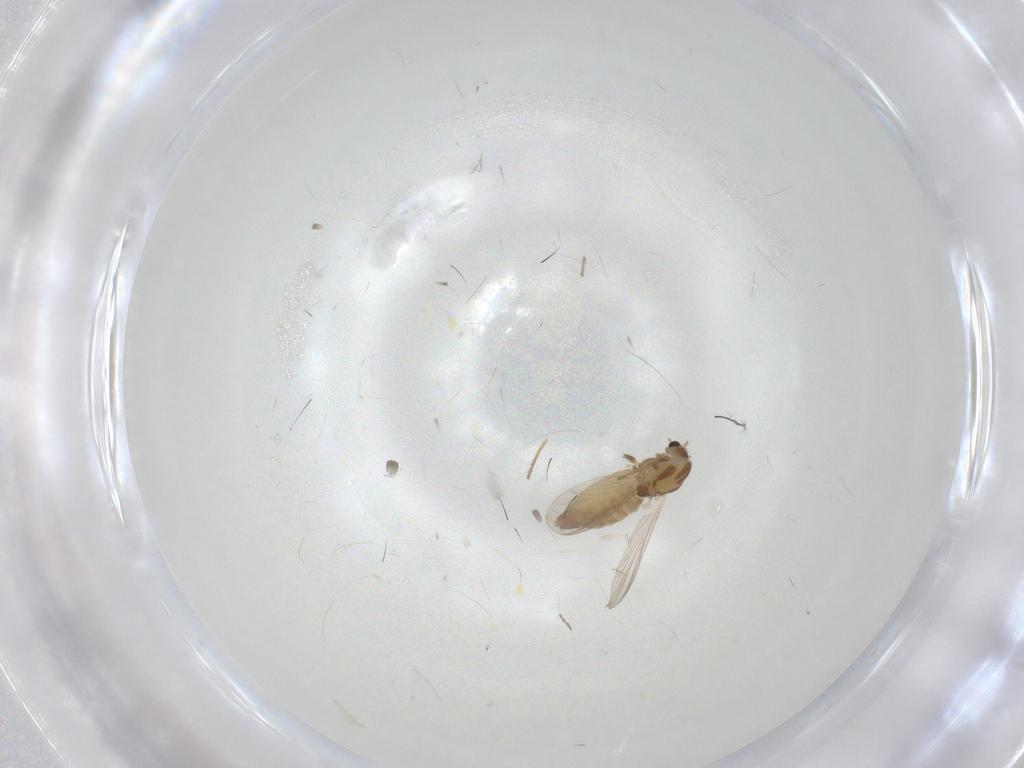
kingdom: Animalia
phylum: Arthropoda
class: Insecta
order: Diptera
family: Chironomidae
